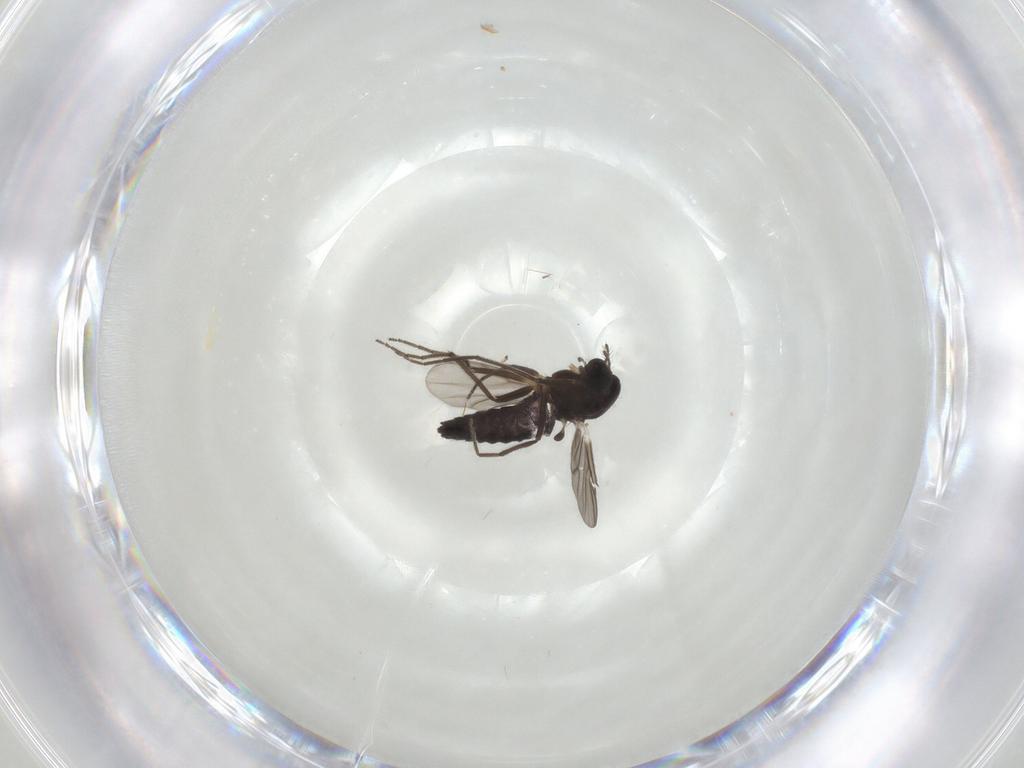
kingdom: Animalia
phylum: Arthropoda
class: Insecta
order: Diptera
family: Chironomidae
